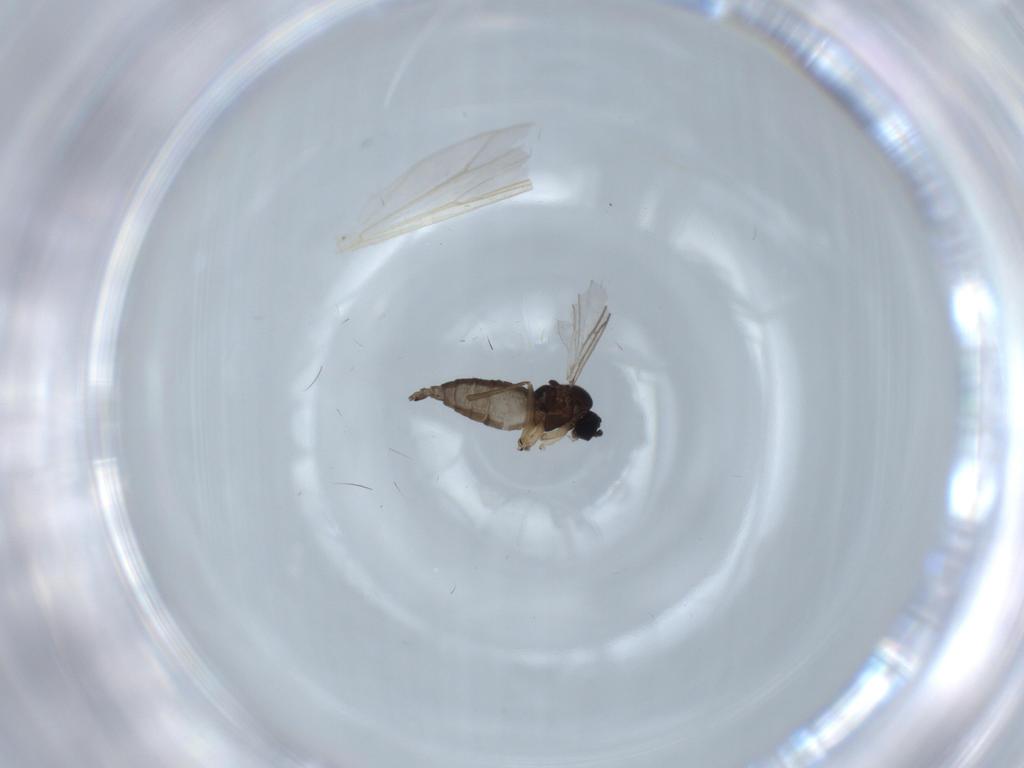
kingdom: Animalia
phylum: Arthropoda
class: Insecta
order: Diptera
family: Sciaridae
